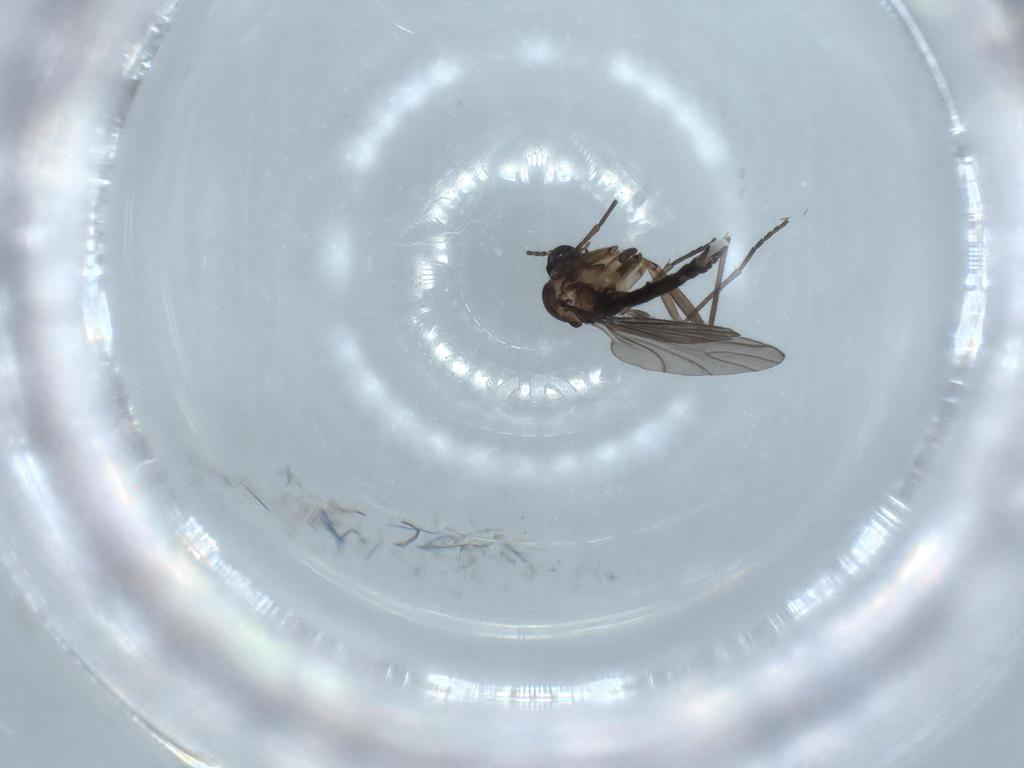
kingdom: Animalia
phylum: Arthropoda
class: Insecta
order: Diptera
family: Sciaridae
